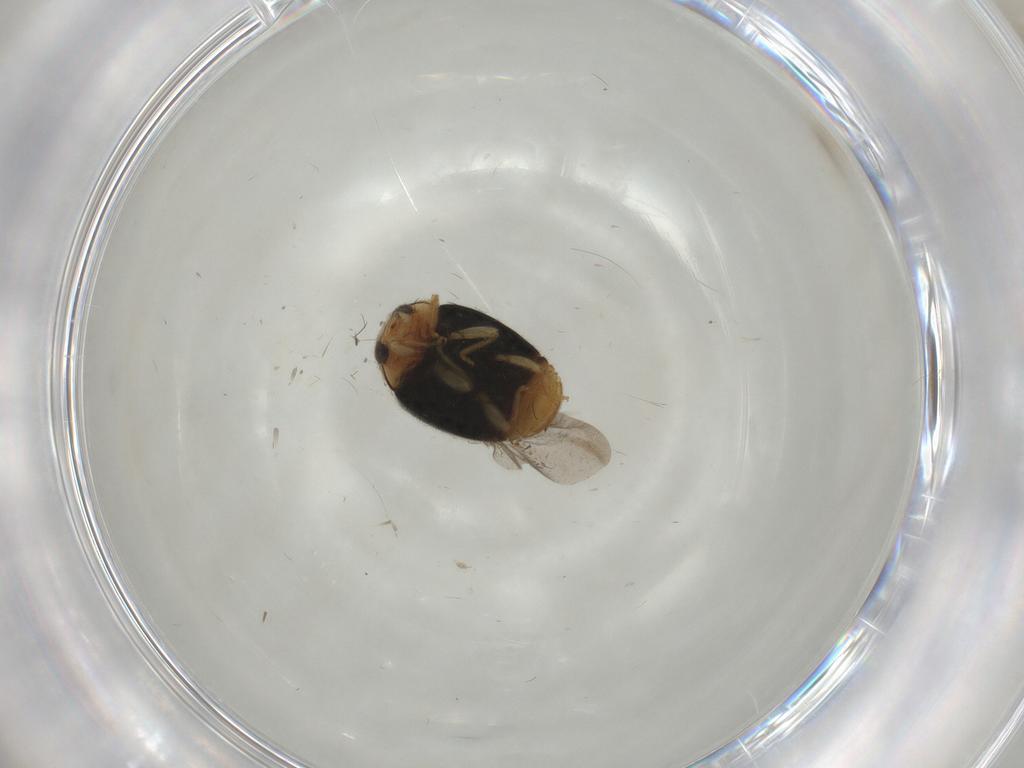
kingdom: Animalia
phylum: Arthropoda
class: Insecta
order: Coleoptera
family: Coccinellidae
